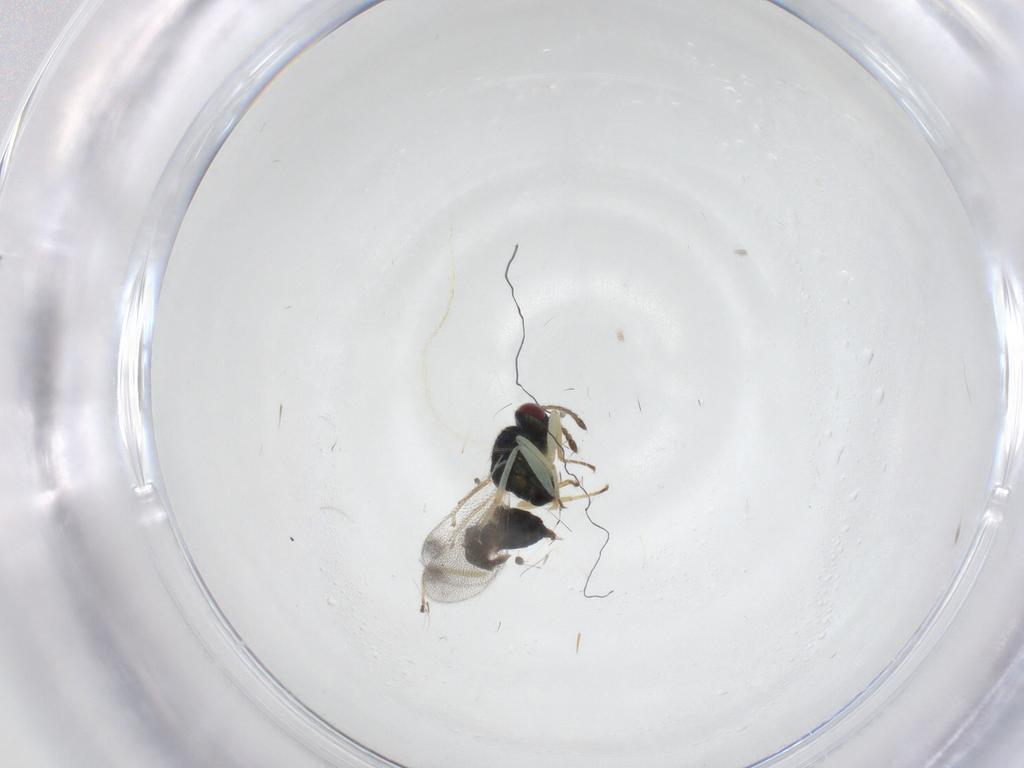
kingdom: Animalia
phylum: Arthropoda
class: Insecta
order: Hymenoptera
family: Eulophidae
